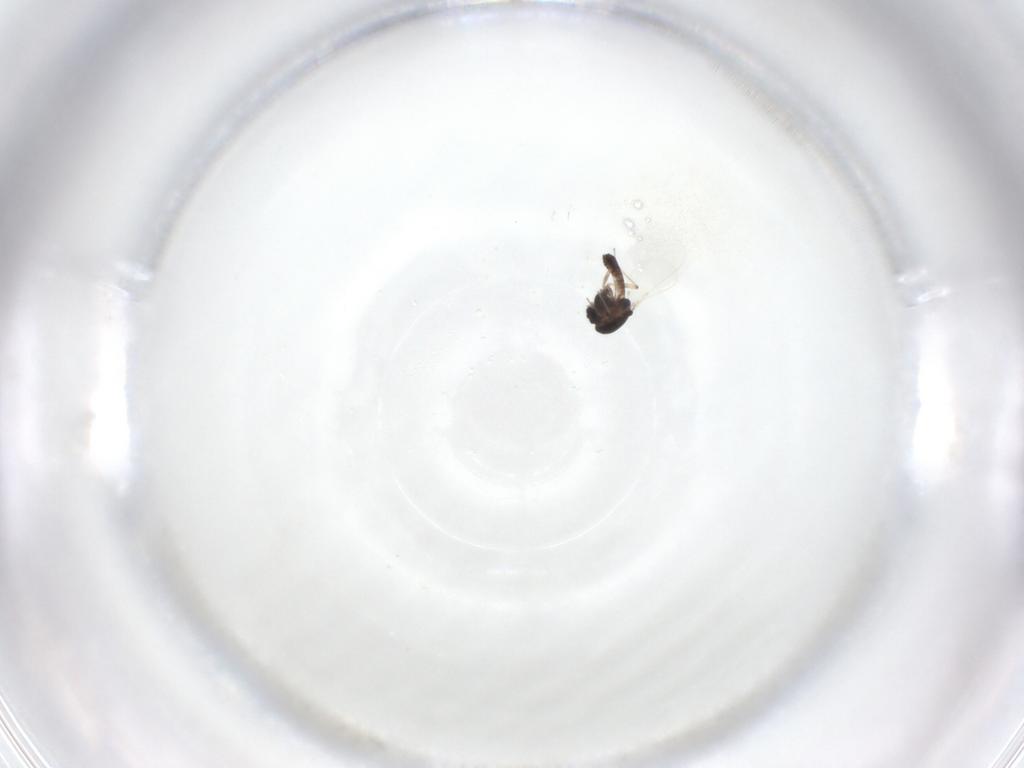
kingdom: Animalia
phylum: Arthropoda
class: Insecta
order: Diptera
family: Chironomidae
